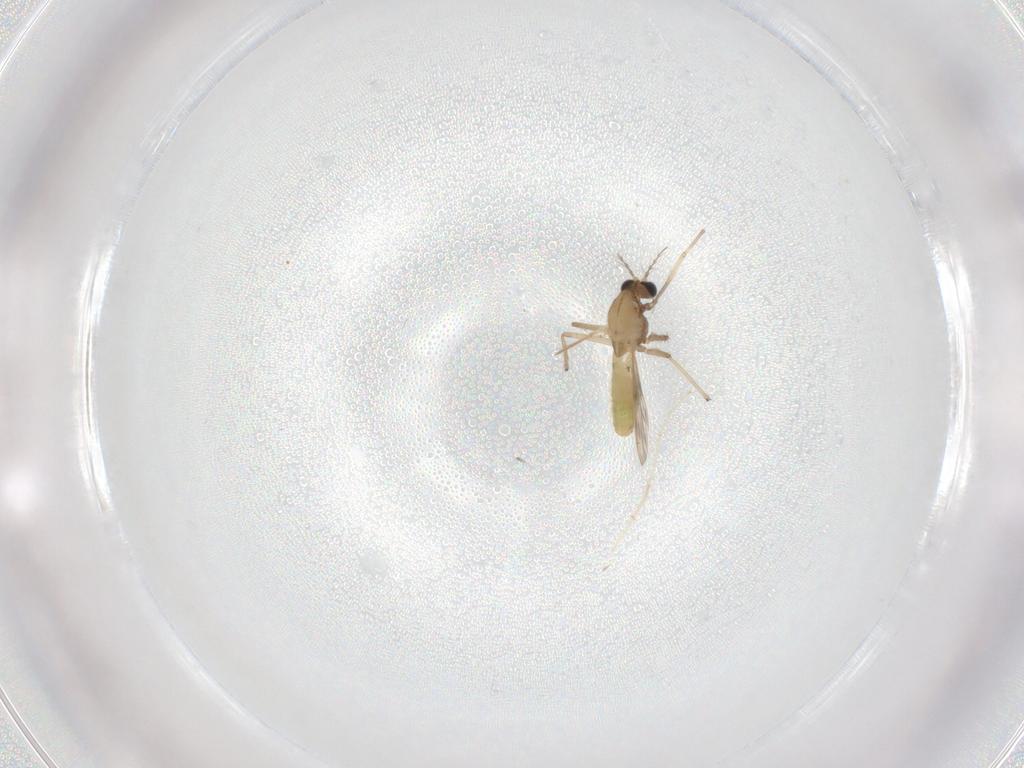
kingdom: Animalia
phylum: Arthropoda
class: Insecta
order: Diptera
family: Chironomidae
